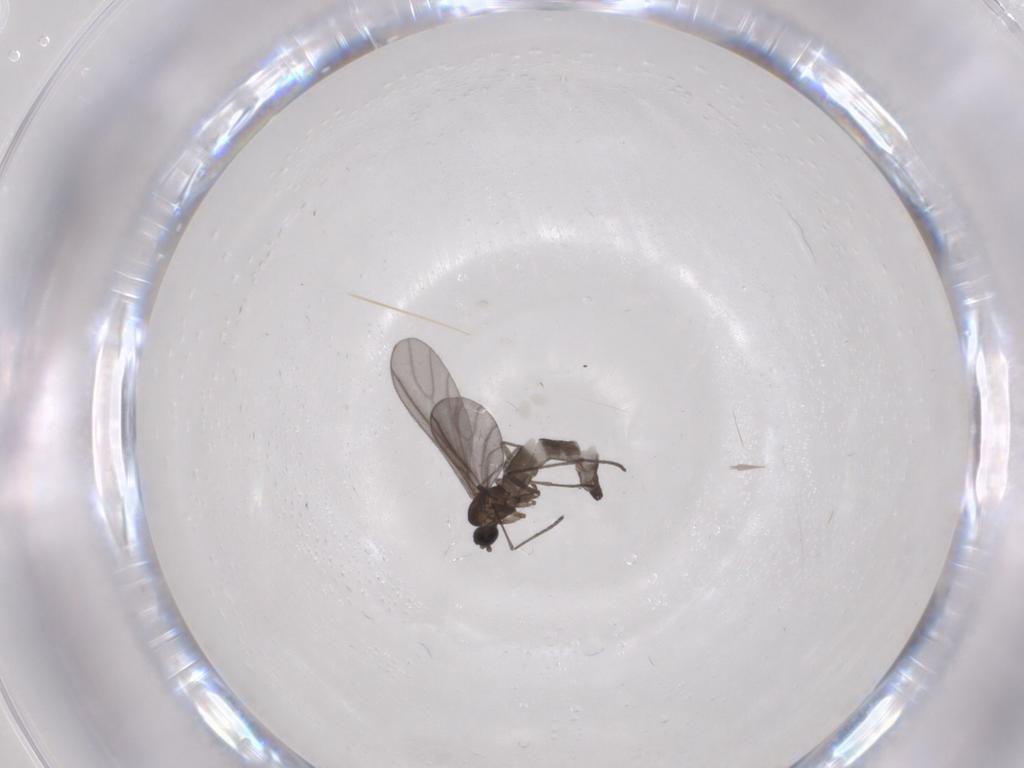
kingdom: Animalia
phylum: Arthropoda
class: Insecta
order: Diptera
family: Sciaridae
